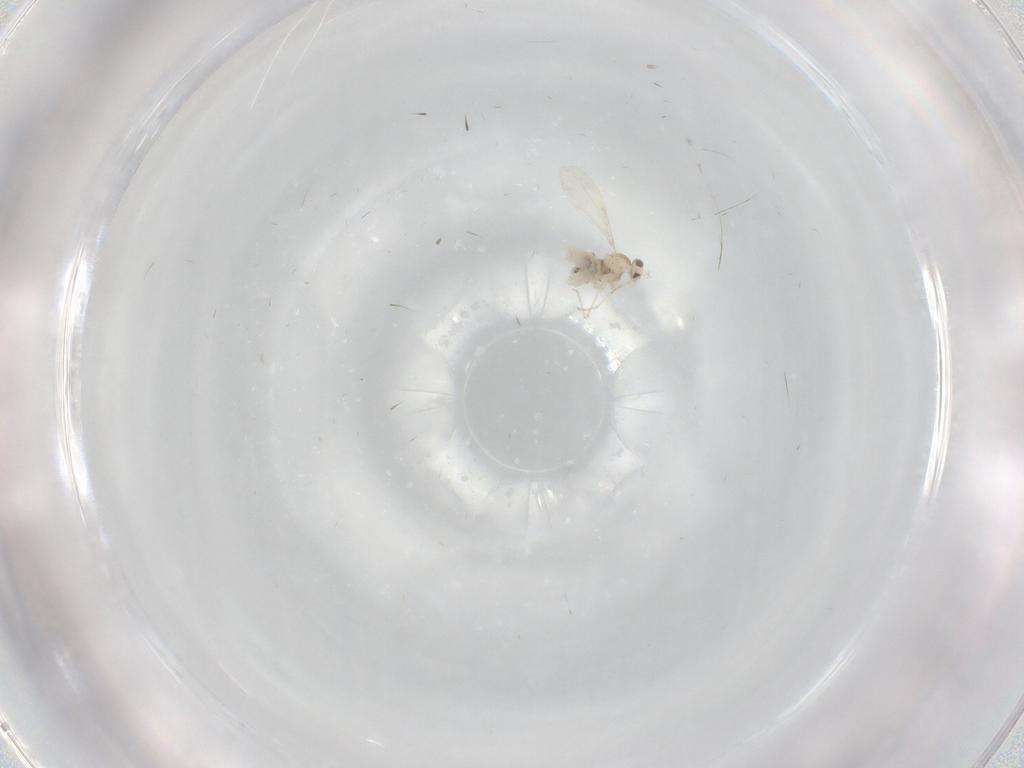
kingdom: Animalia
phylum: Arthropoda
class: Insecta
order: Diptera
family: Cecidomyiidae
